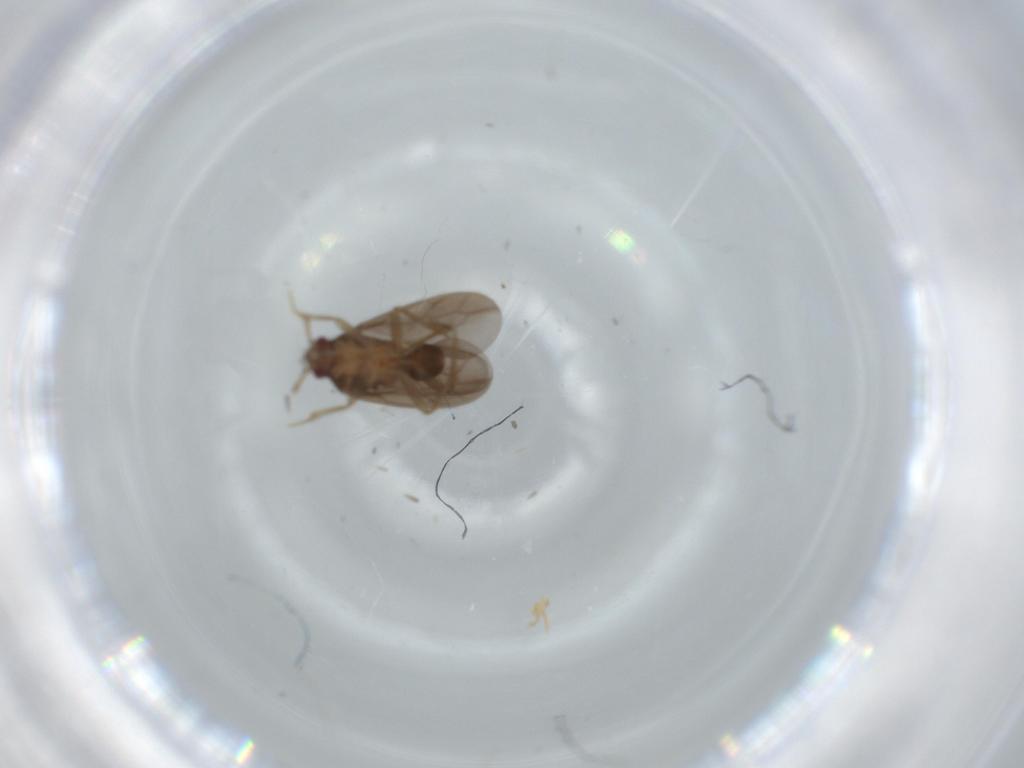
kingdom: Animalia
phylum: Arthropoda
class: Insecta
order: Hemiptera
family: Ceratocombidae
